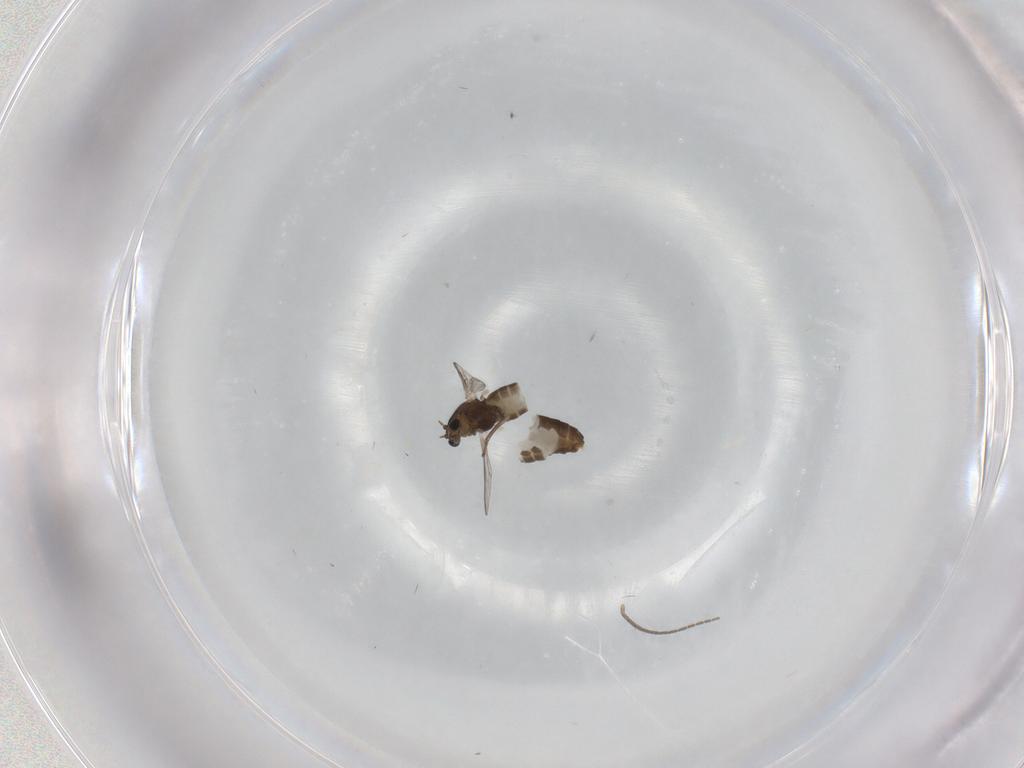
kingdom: Animalia
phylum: Arthropoda
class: Insecta
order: Diptera
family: Chironomidae
